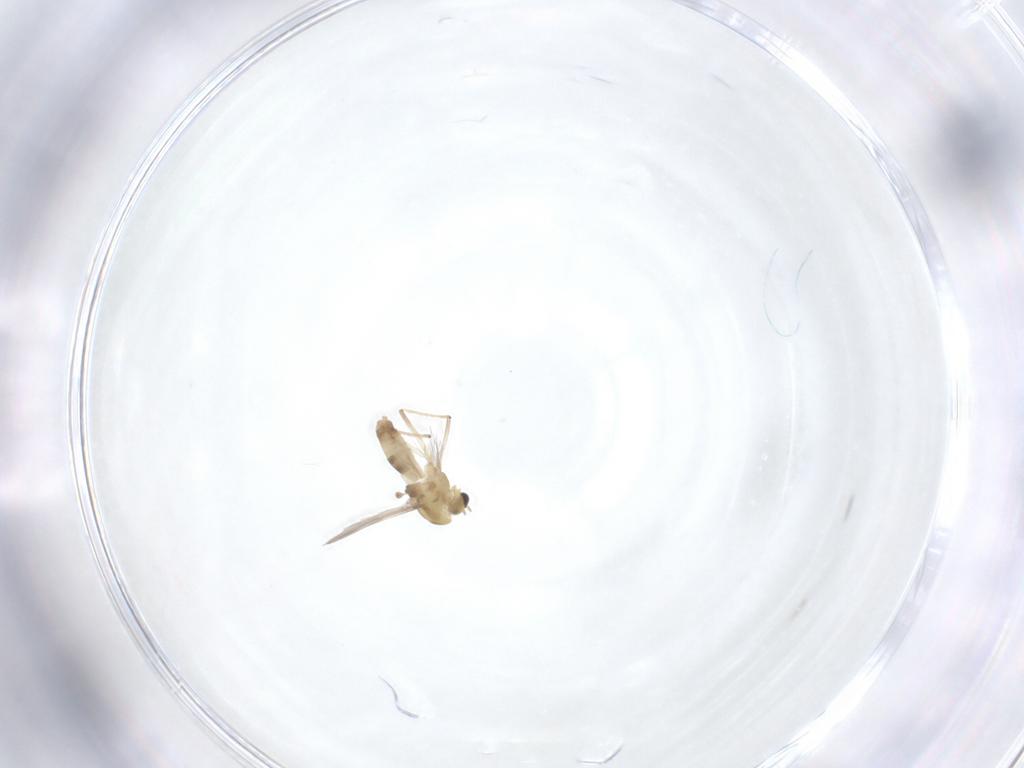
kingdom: Animalia
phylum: Arthropoda
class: Insecta
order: Diptera
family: Chironomidae
